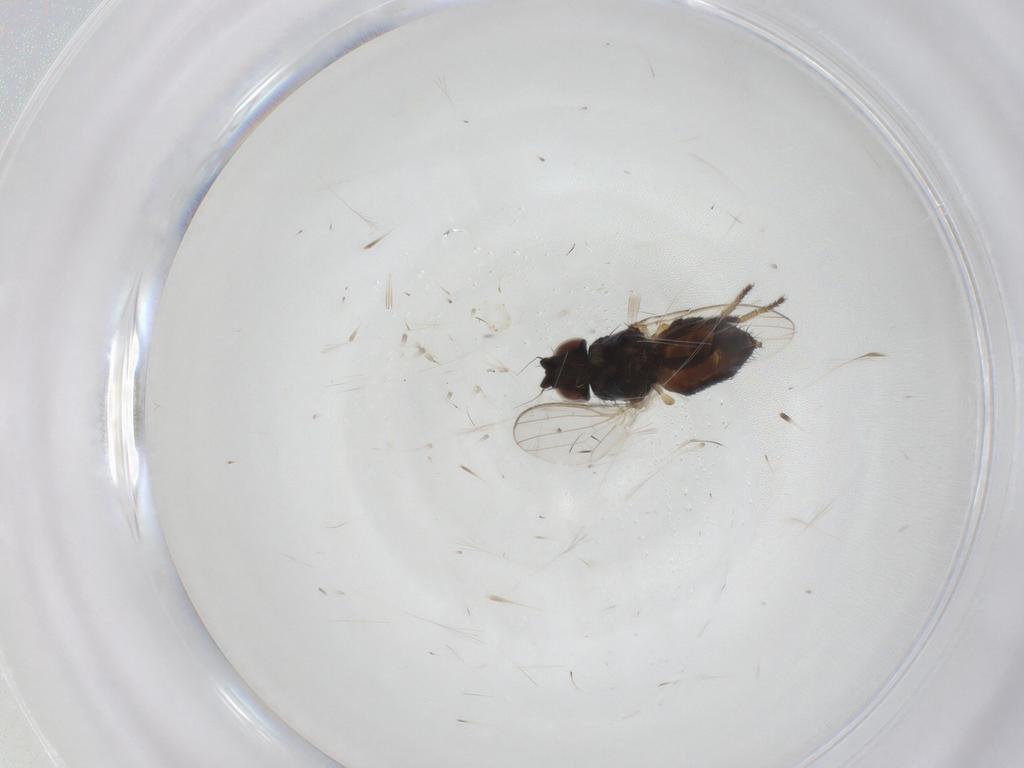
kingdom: Animalia
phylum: Arthropoda
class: Insecta
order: Diptera
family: Milichiidae
